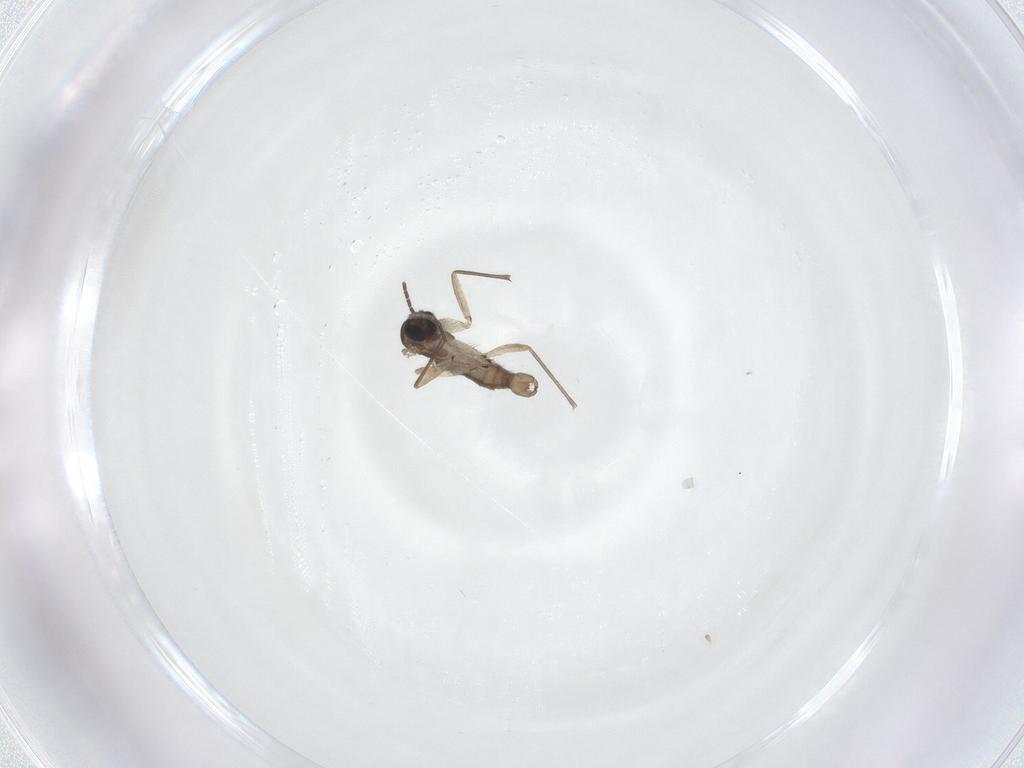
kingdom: Animalia
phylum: Arthropoda
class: Insecta
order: Diptera
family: Sciaridae
